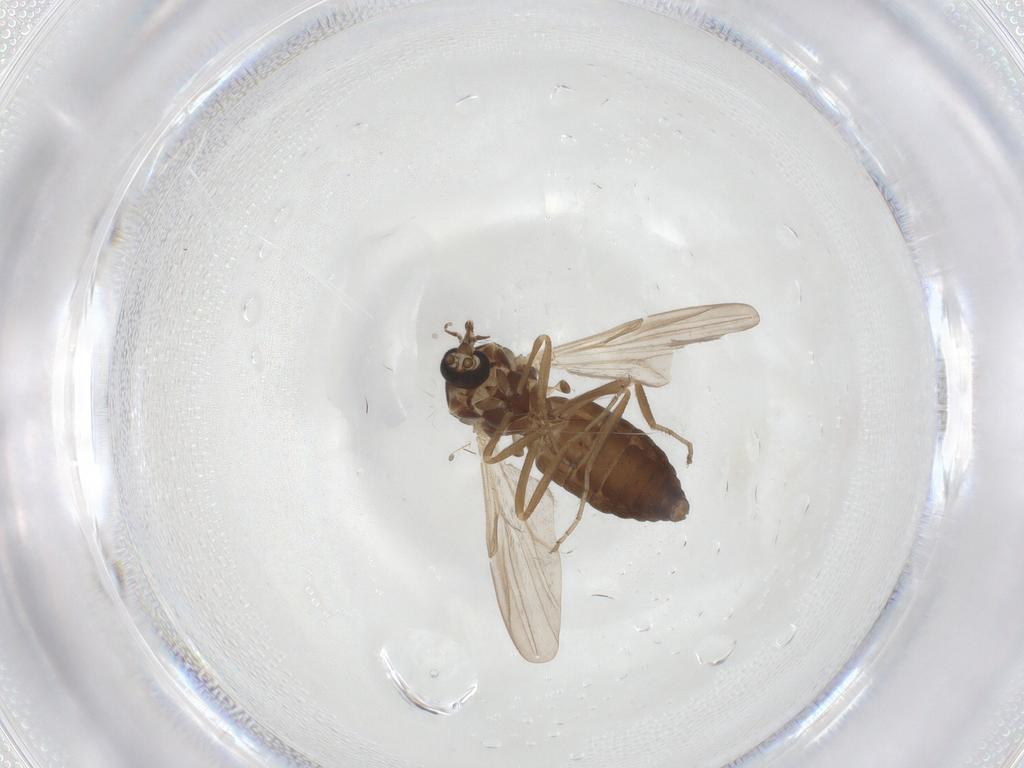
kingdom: Animalia
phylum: Arthropoda
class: Insecta
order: Diptera
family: Ceratopogonidae
